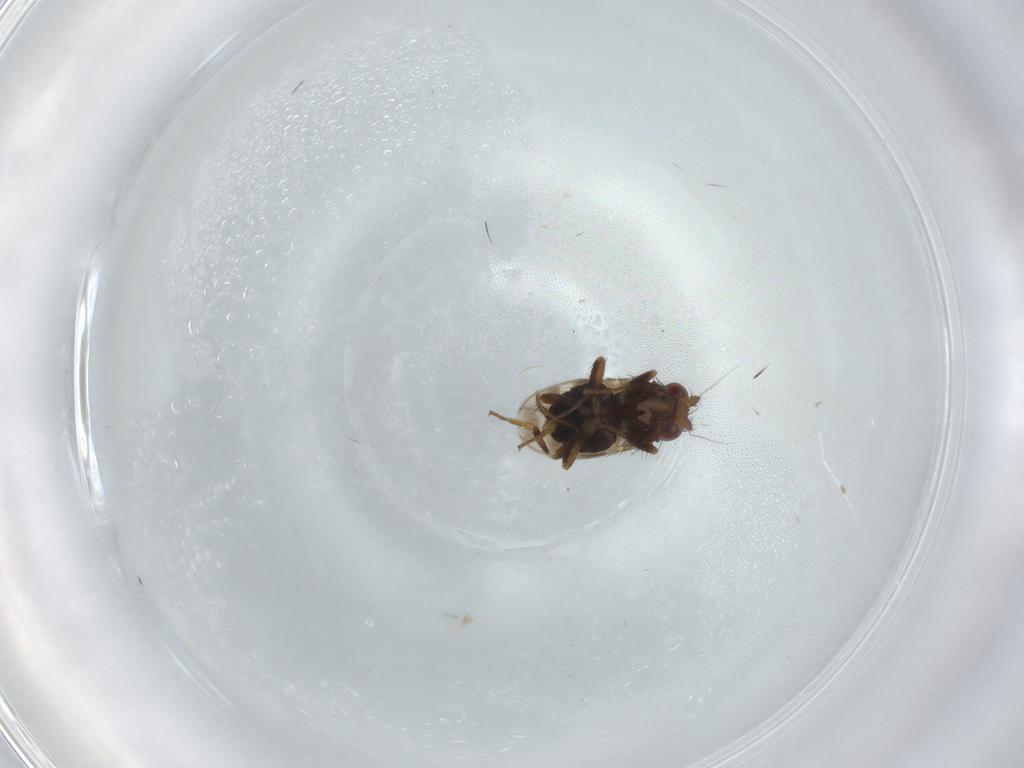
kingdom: Animalia
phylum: Arthropoda
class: Insecta
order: Diptera
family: Sphaeroceridae
